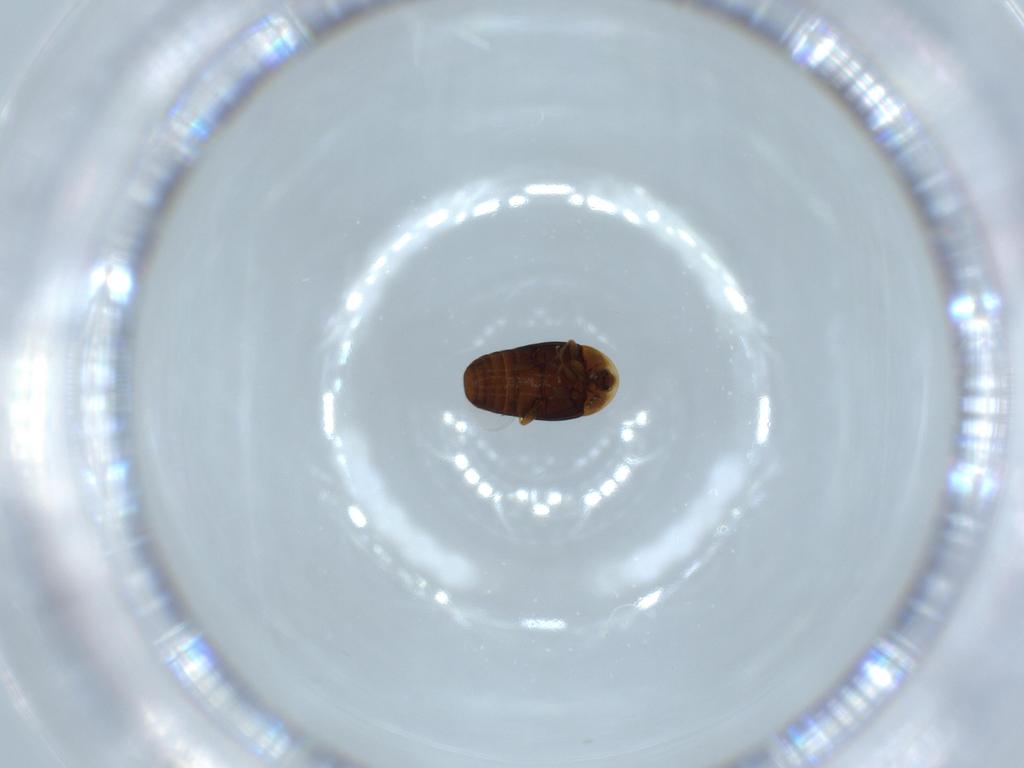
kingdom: Animalia
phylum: Arthropoda
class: Insecta
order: Coleoptera
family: Corylophidae
